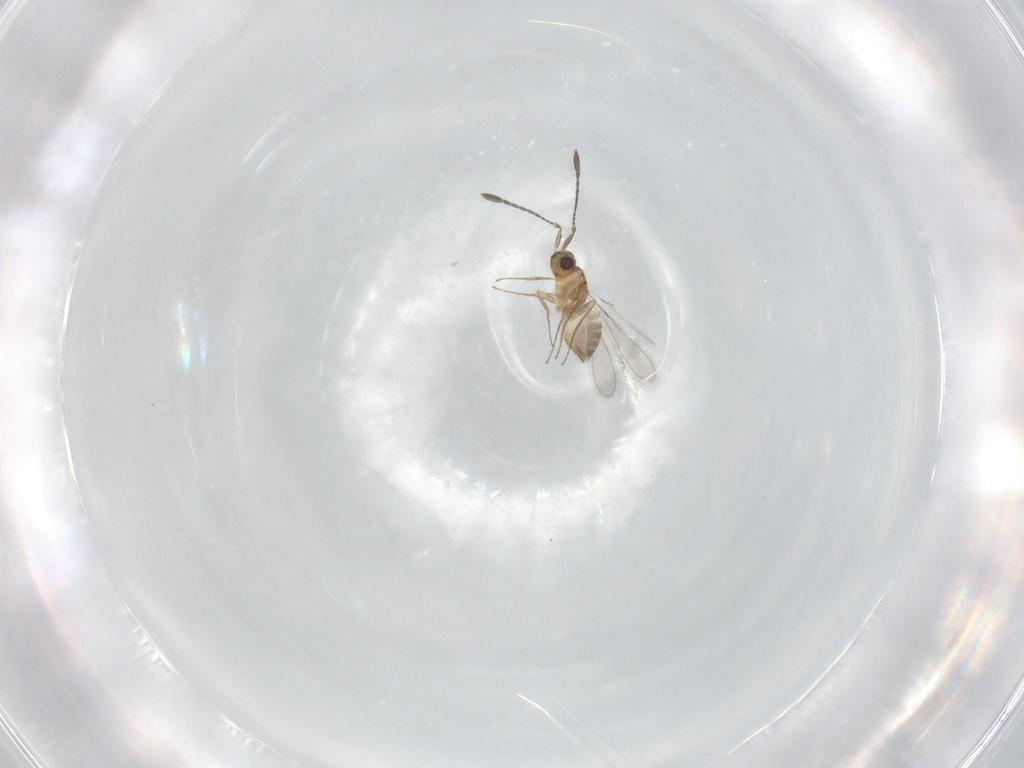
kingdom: Animalia
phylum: Arthropoda
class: Insecta
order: Hymenoptera
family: Mymaridae
